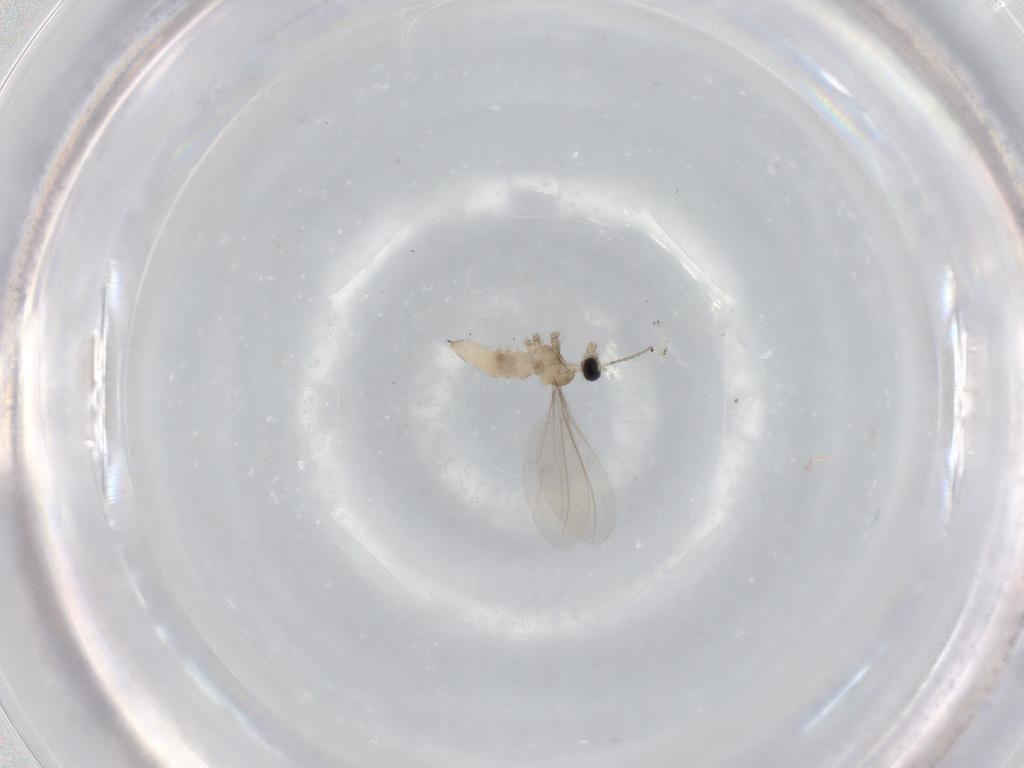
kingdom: Animalia
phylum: Arthropoda
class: Insecta
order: Diptera
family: Cecidomyiidae
